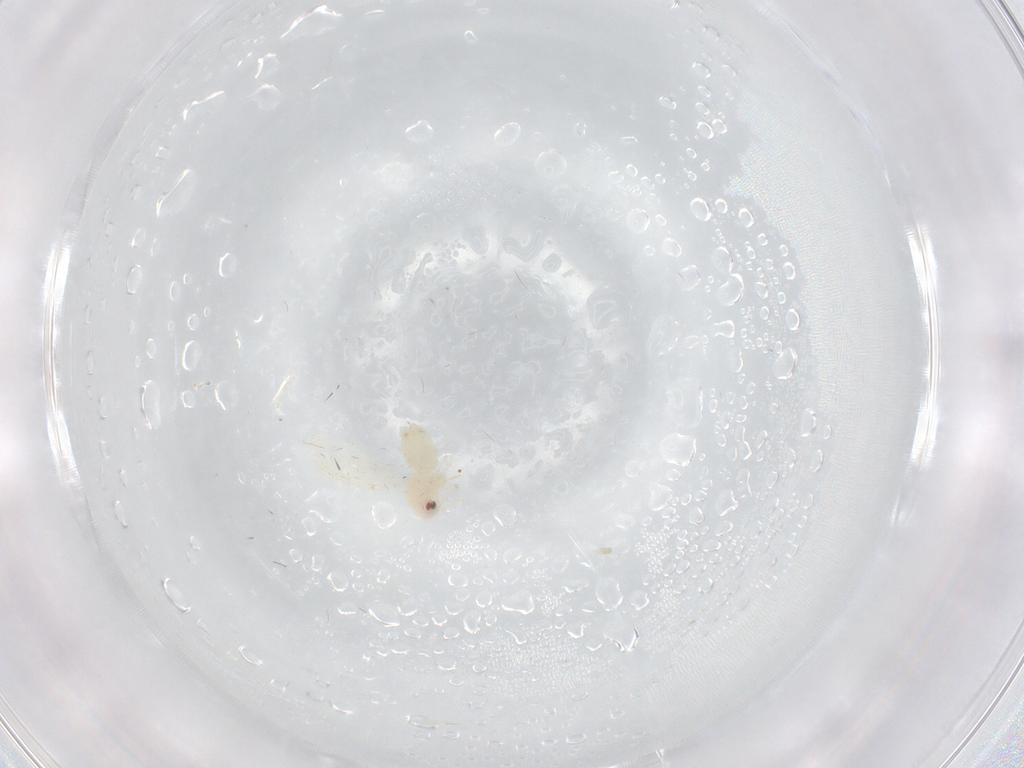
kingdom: Animalia
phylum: Arthropoda
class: Insecta
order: Hemiptera
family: Aleyrodidae
